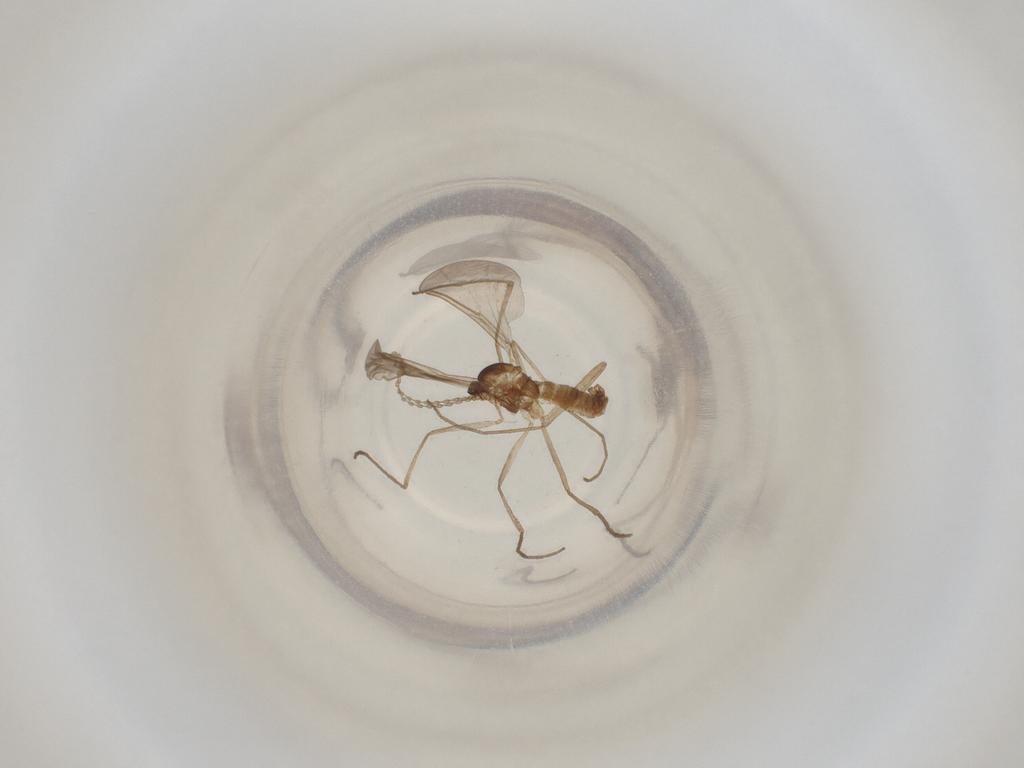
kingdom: Animalia
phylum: Arthropoda
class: Insecta
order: Diptera
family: Cecidomyiidae
